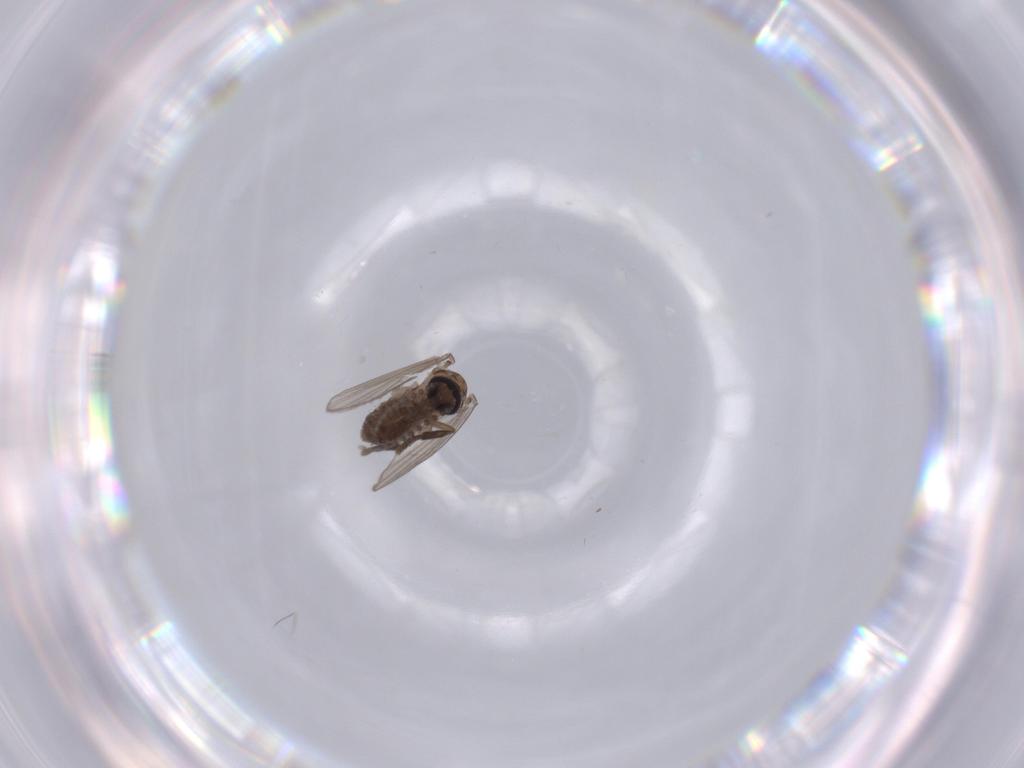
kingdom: Animalia
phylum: Arthropoda
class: Insecta
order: Diptera
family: Sciaridae
